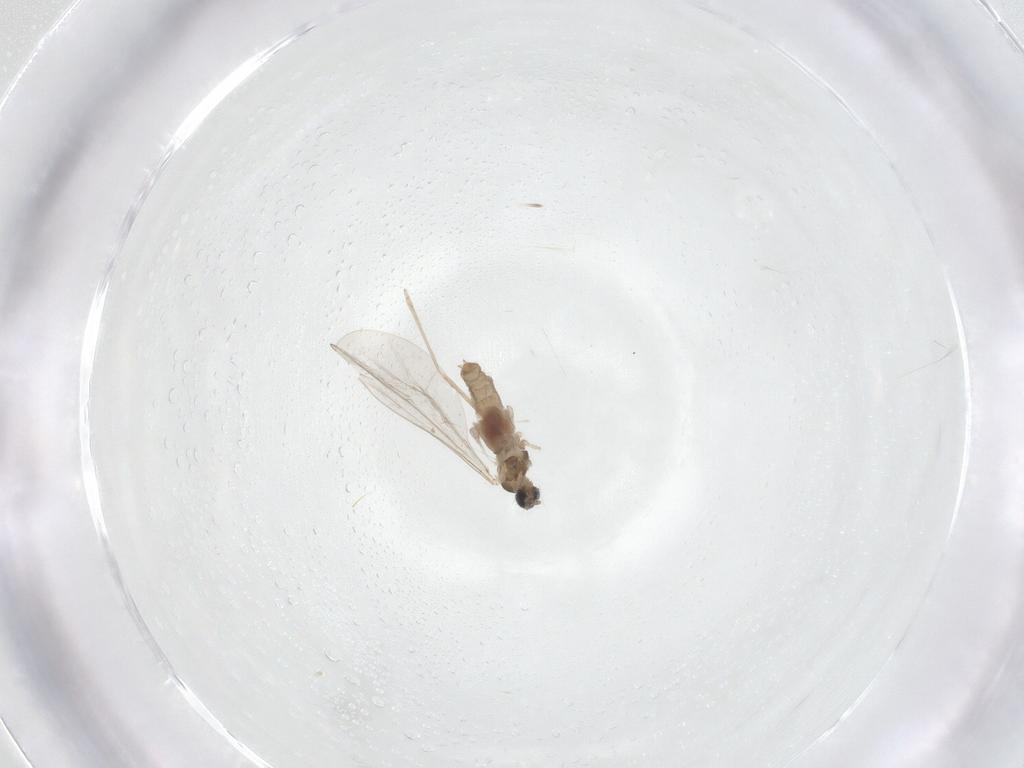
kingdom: Animalia
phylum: Arthropoda
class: Insecta
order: Diptera
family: Cecidomyiidae
